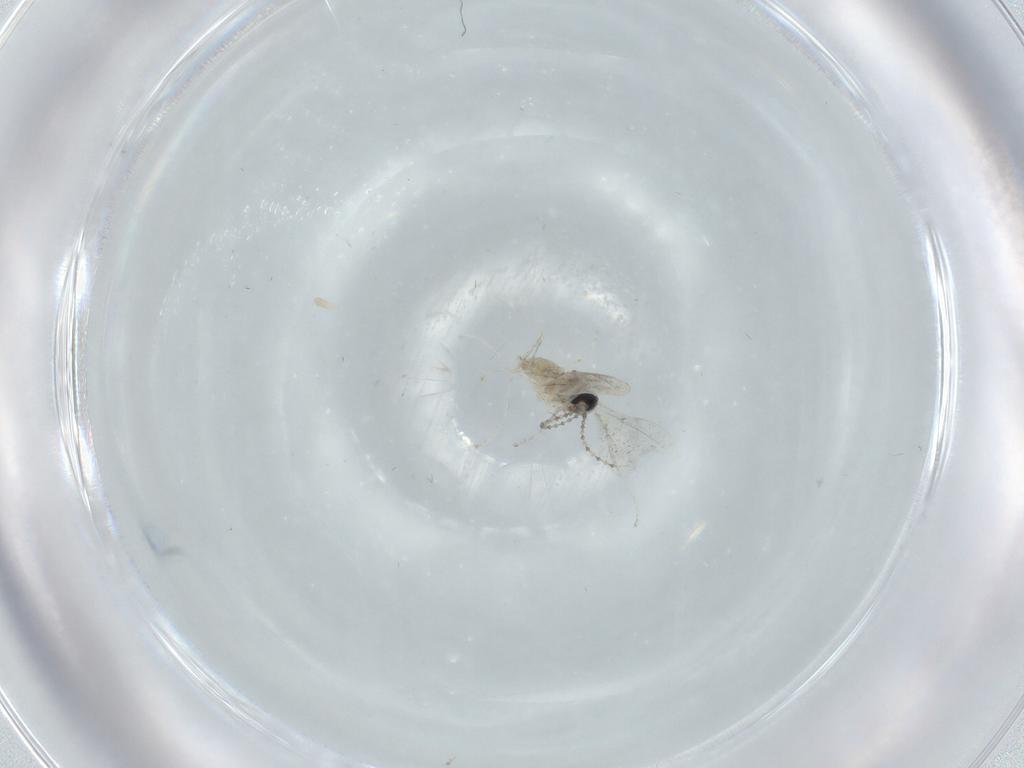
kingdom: Animalia
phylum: Arthropoda
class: Insecta
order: Diptera
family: Cecidomyiidae
